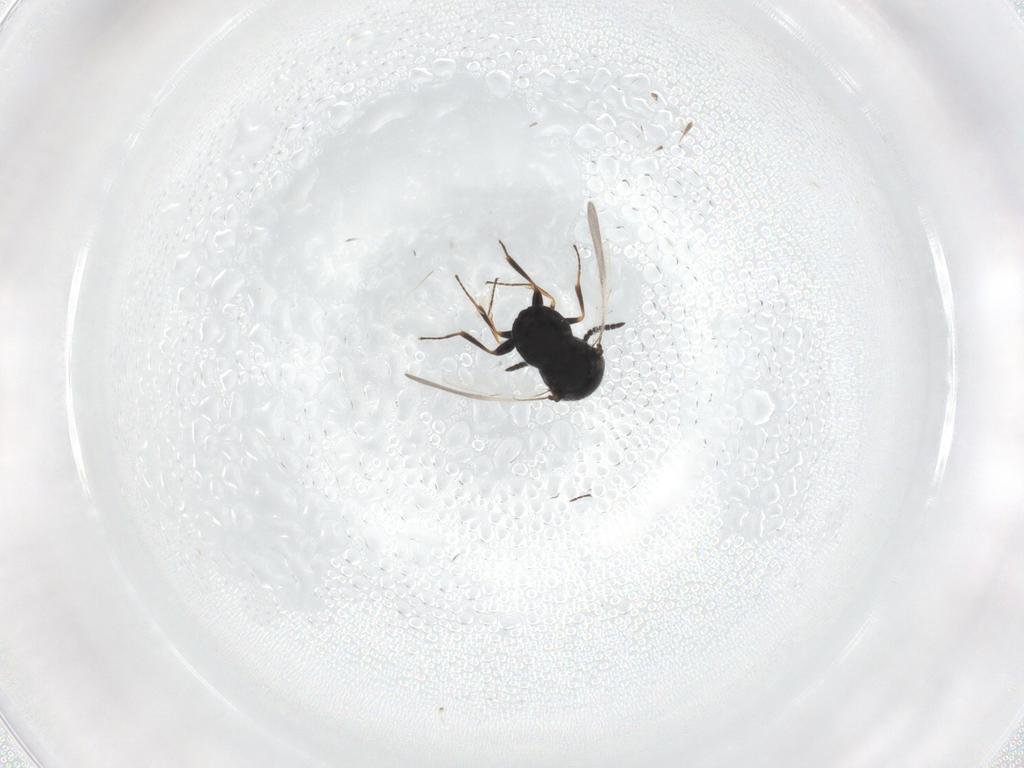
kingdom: Animalia
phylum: Arthropoda
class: Insecta
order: Hymenoptera
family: Scelionidae
